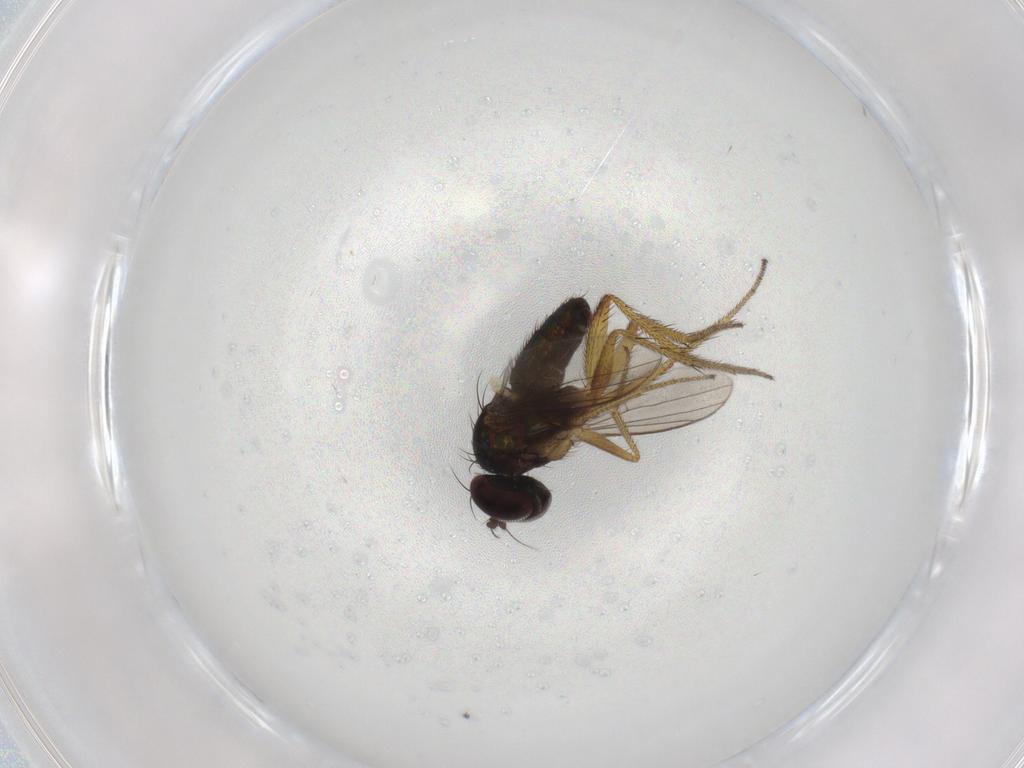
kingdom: Animalia
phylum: Arthropoda
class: Insecta
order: Diptera
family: Dolichopodidae
